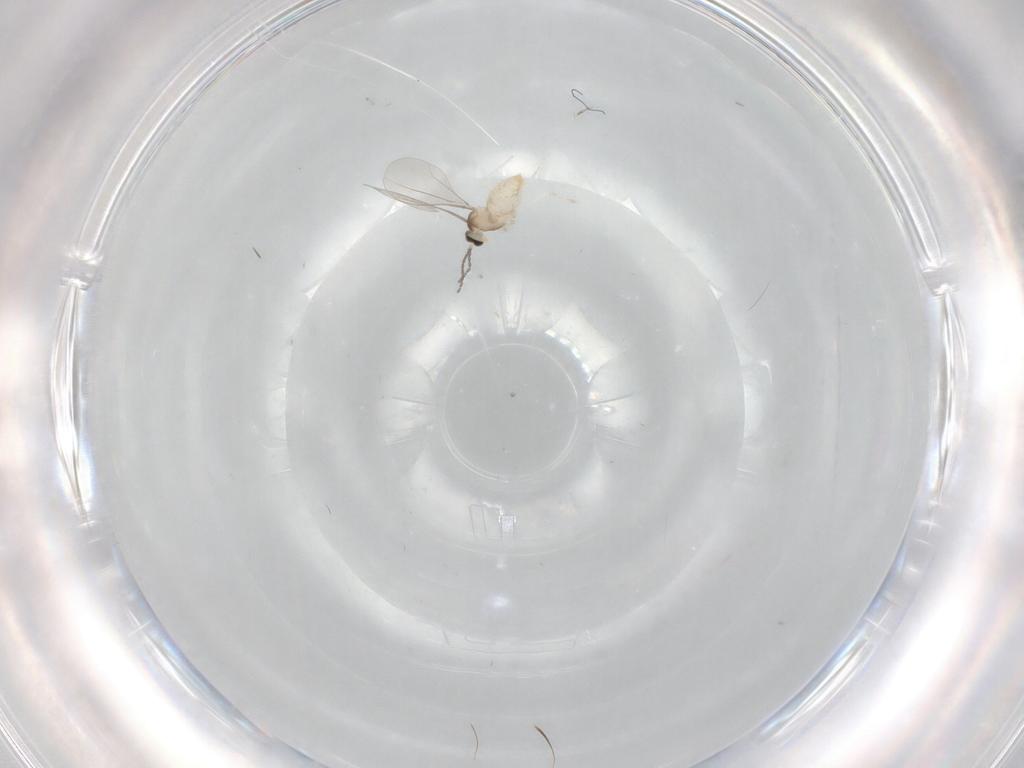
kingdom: Animalia
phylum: Arthropoda
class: Insecta
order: Diptera
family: Cecidomyiidae
